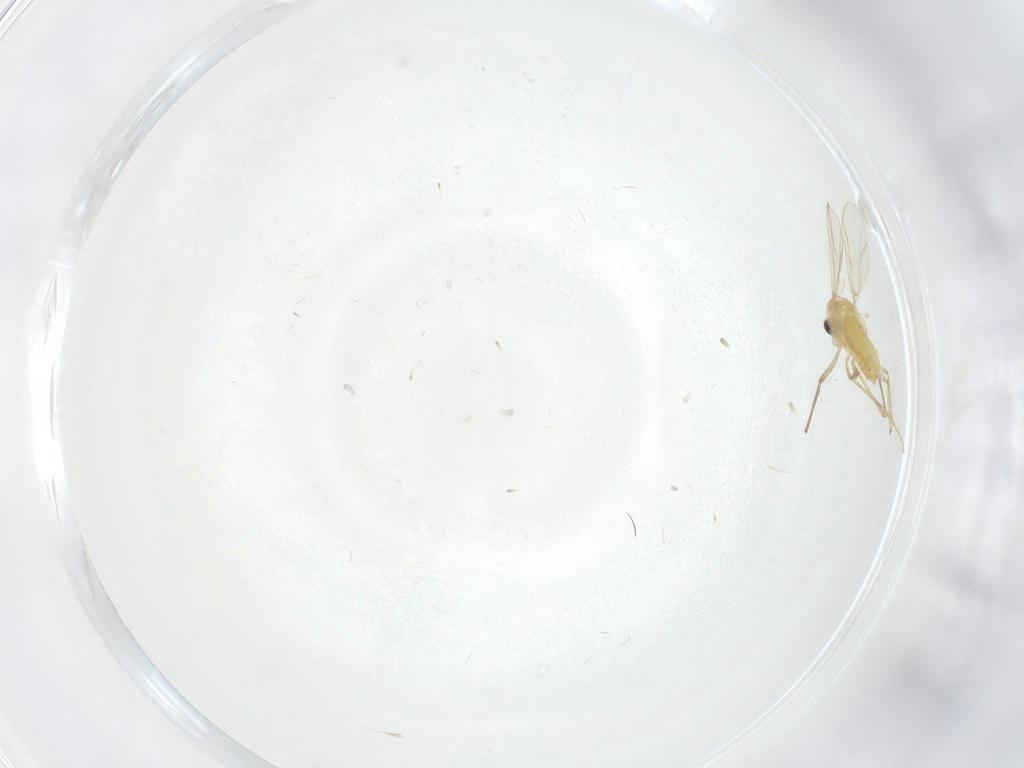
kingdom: Animalia
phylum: Arthropoda
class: Insecta
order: Diptera
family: Chironomidae
